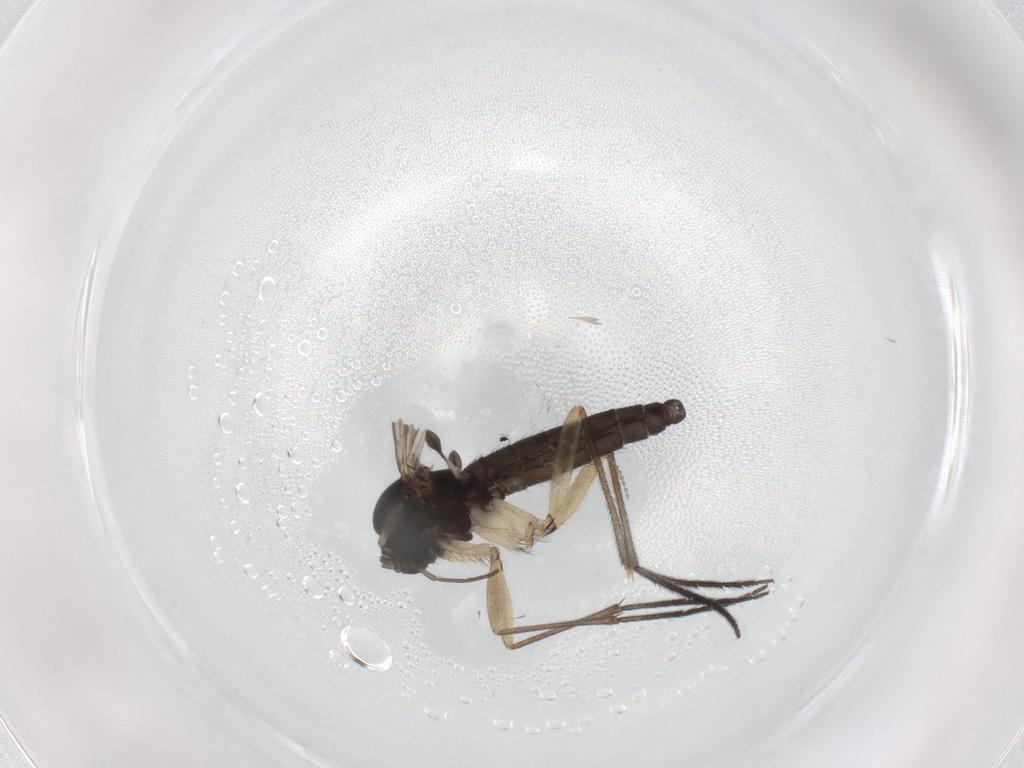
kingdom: Animalia
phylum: Arthropoda
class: Insecta
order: Diptera
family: Sciaridae
